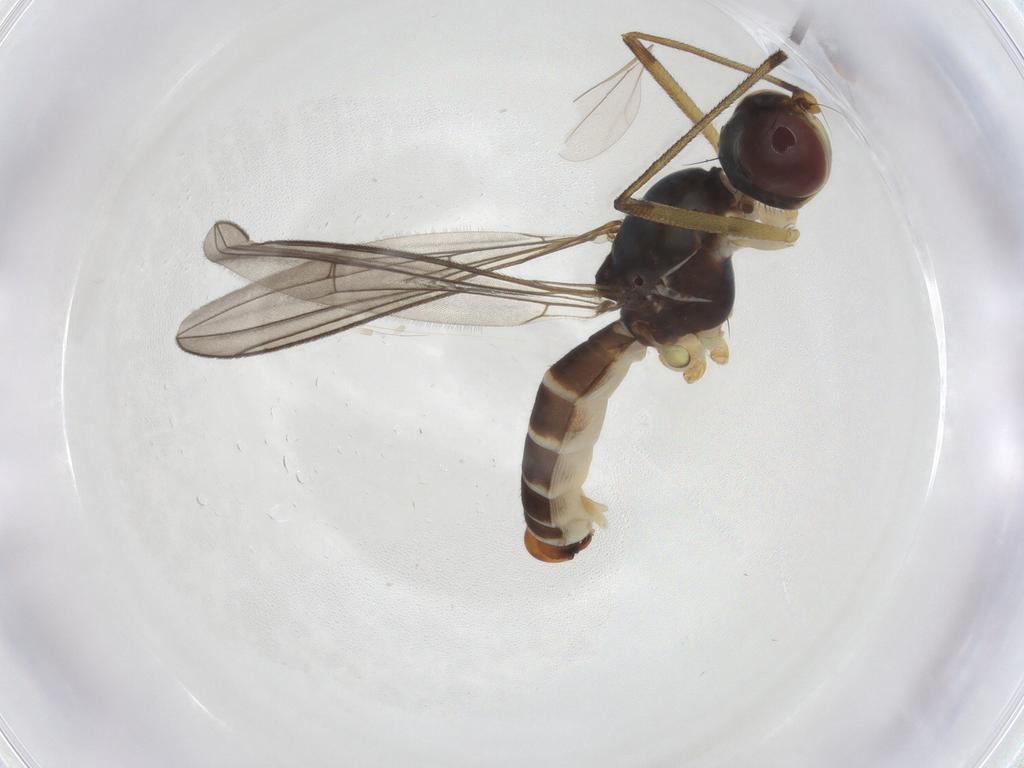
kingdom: Animalia
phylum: Arthropoda
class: Insecta
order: Diptera
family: Micropezidae
